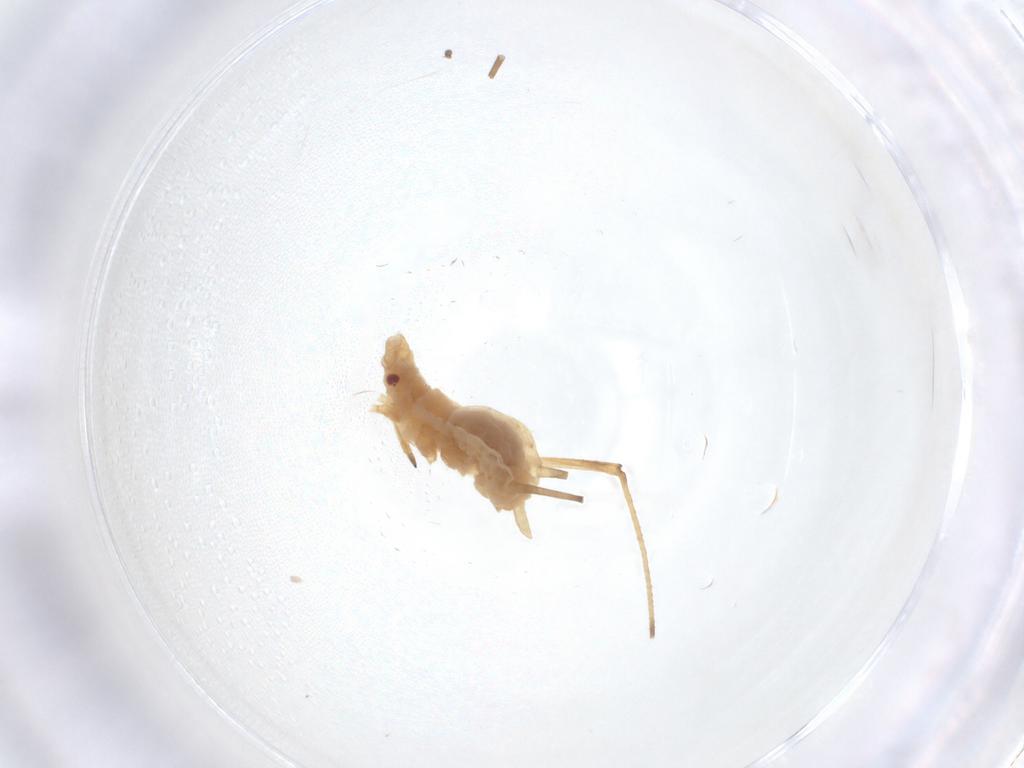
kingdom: Animalia
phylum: Arthropoda
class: Insecta
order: Hemiptera
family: Aphididae
